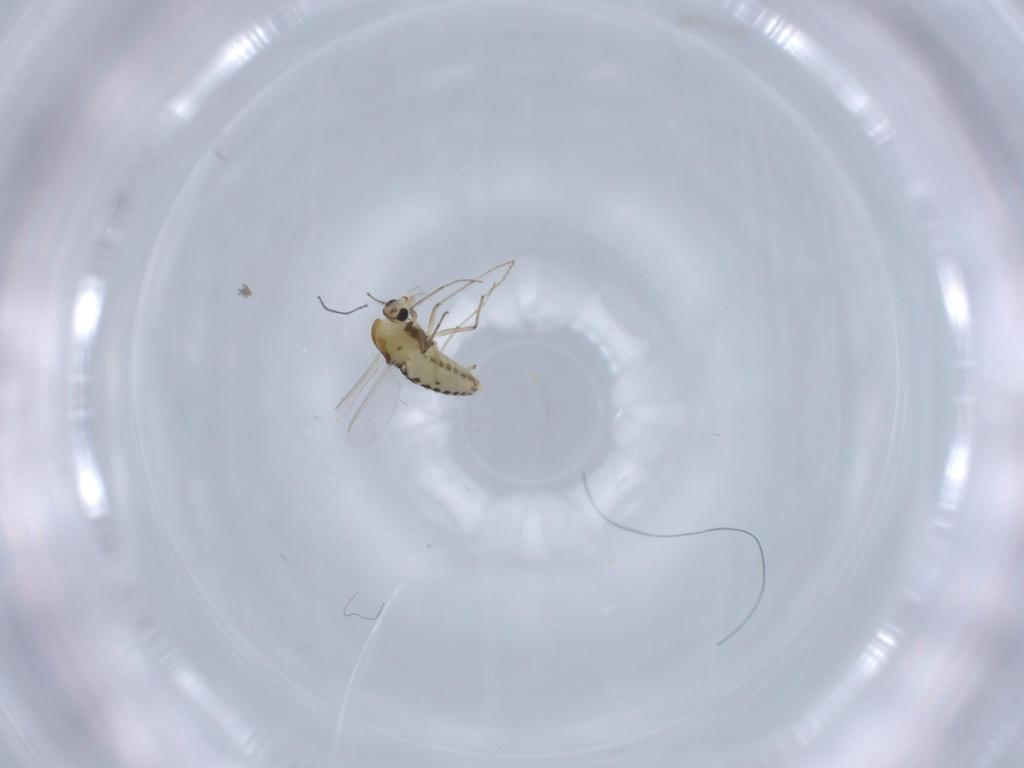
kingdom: Animalia
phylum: Arthropoda
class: Insecta
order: Diptera
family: Chironomidae
